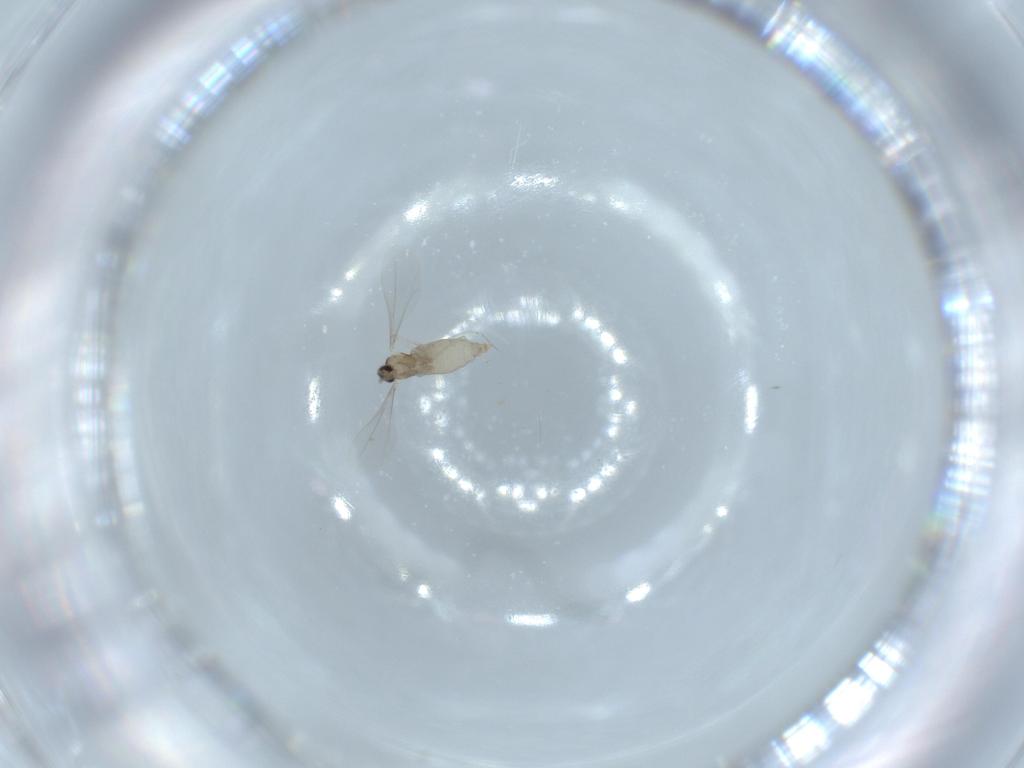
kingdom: Animalia
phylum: Arthropoda
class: Insecta
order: Diptera
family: Cecidomyiidae
